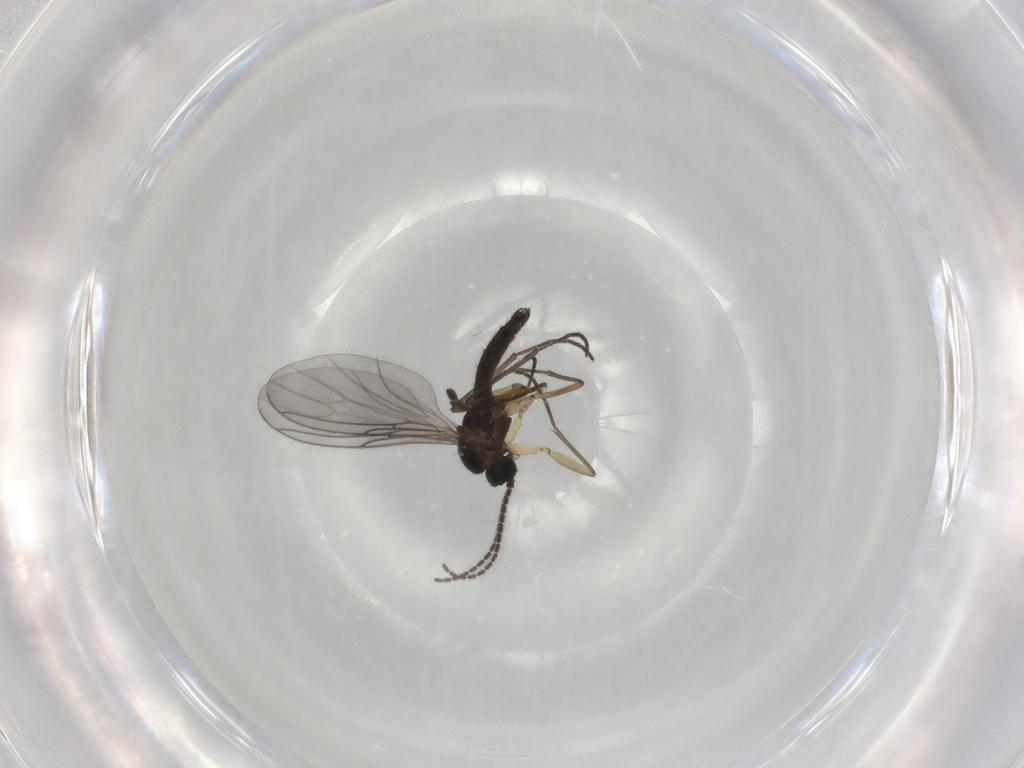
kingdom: Animalia
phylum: Arthropoda
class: Insecta
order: Diptera
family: Sciaridae
